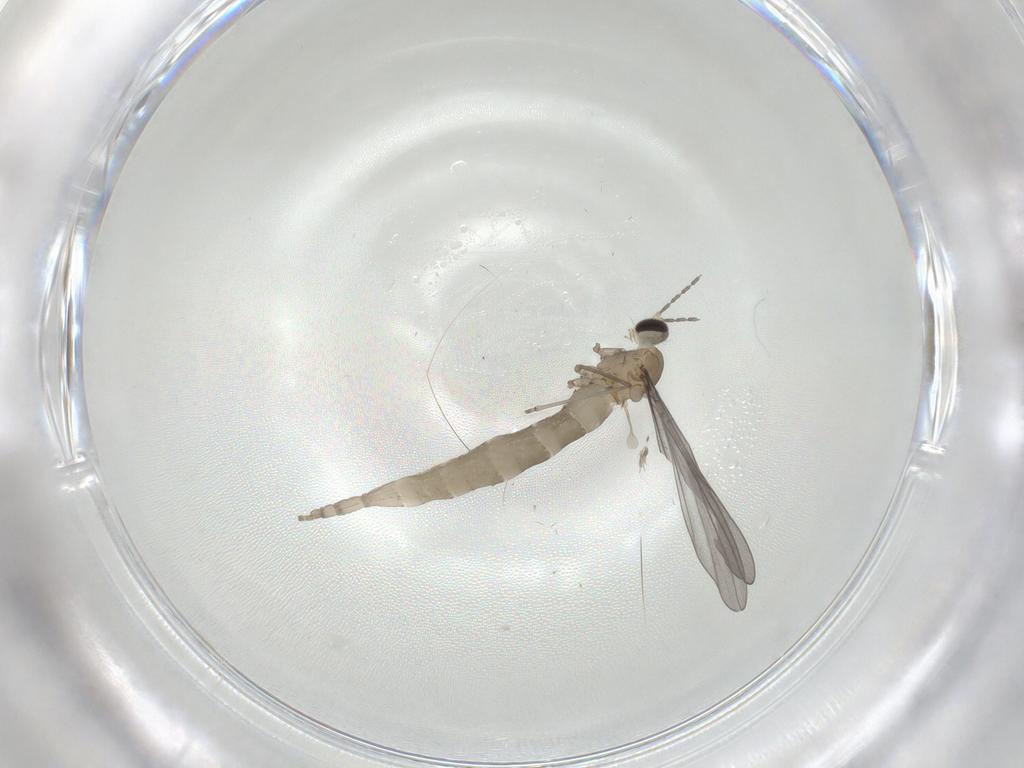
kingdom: Animalia
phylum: Arthropoda
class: Insecta
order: Diptera
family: Cecidomyiidae
